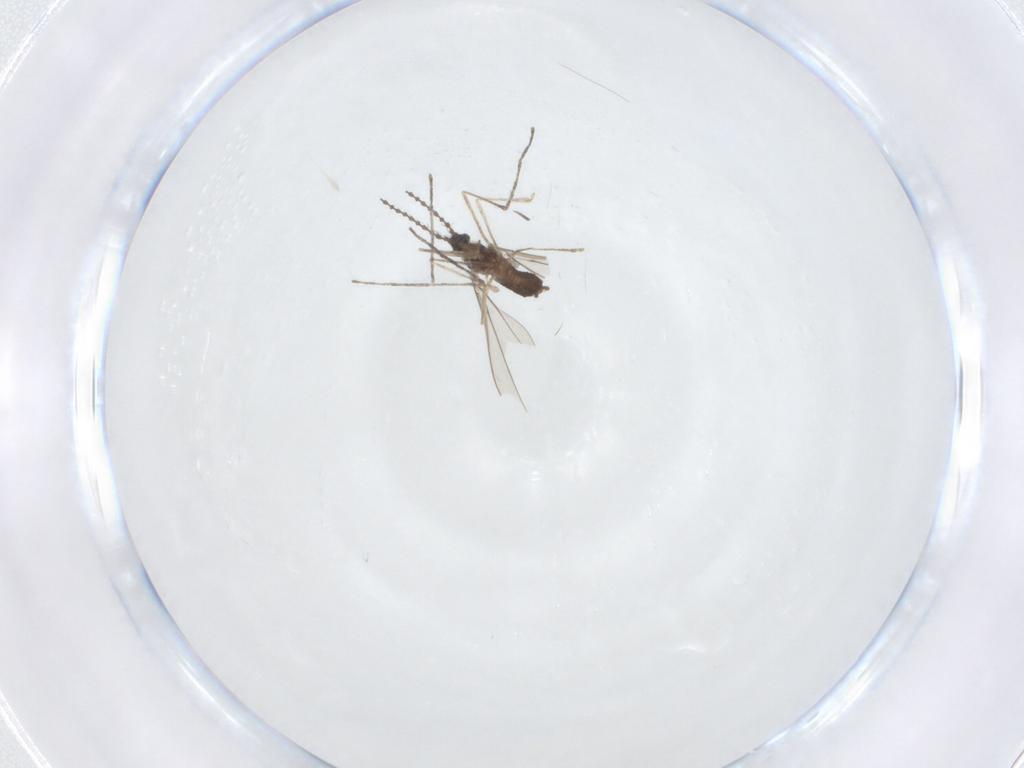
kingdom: Animalia
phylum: Arthropoda
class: Insecta
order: Diptera
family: Cecidomyiidae
